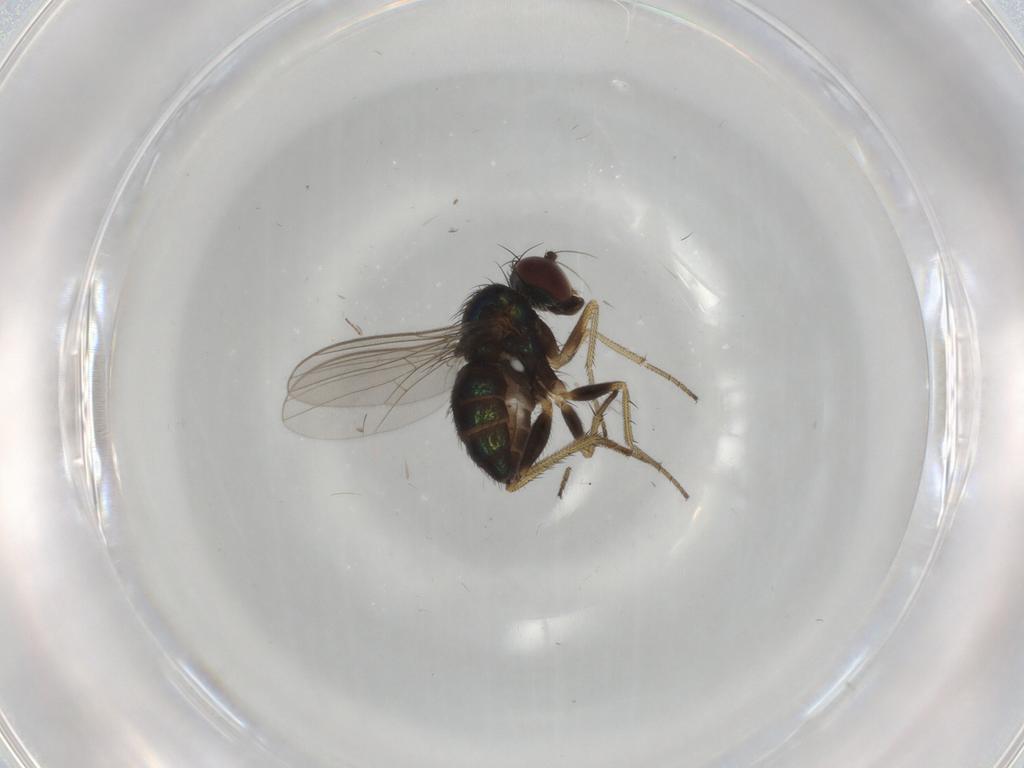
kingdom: Animalia
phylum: Arthropoda
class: Insecta
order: Diptera
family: Dolichopodidae
